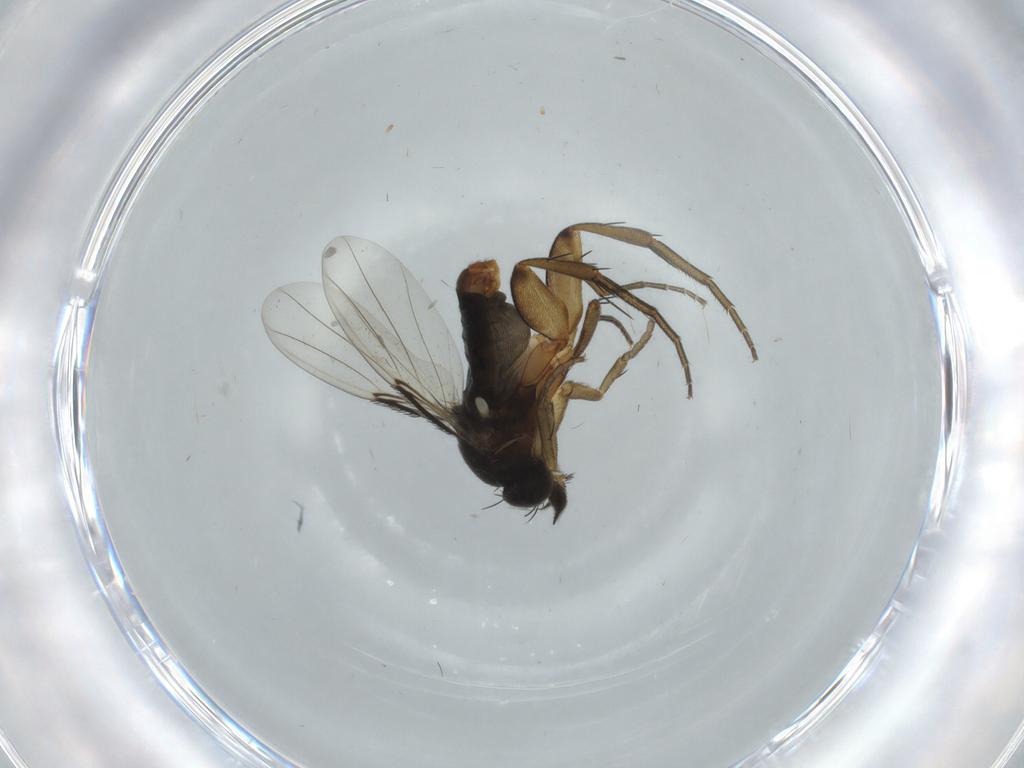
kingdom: Animalia
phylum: Arthropoda
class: Insecta
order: Diptera
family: Phoridae
